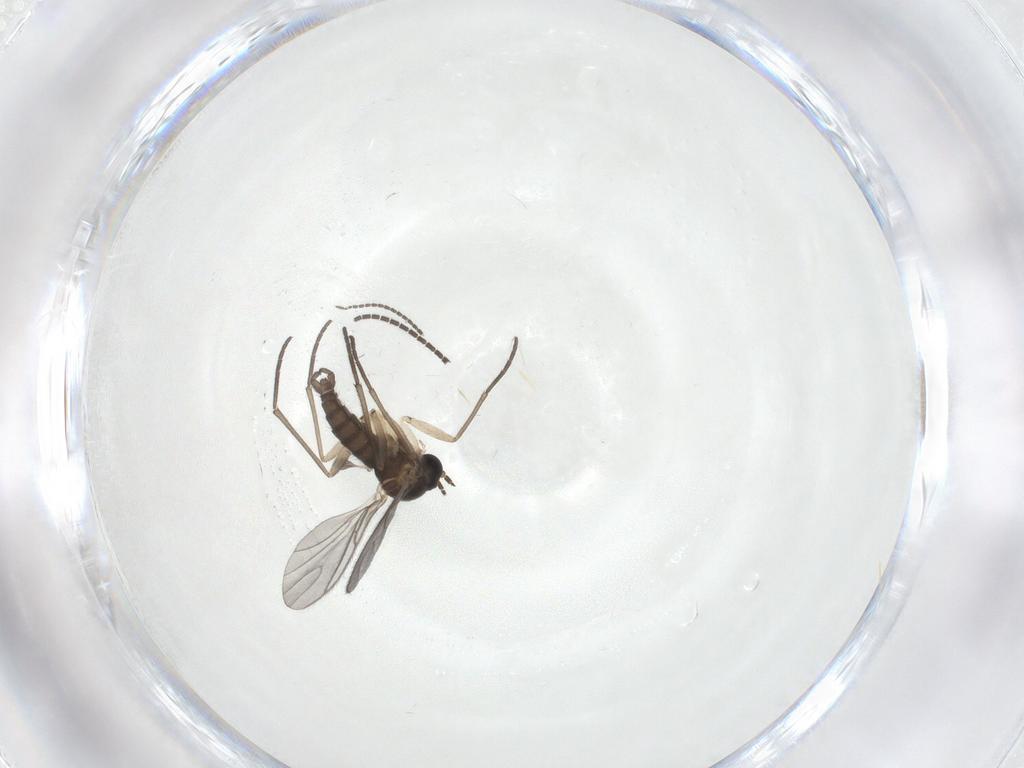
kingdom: Animalia
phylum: Arthropoda
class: Insecta
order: Diptera
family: Sciaridae
